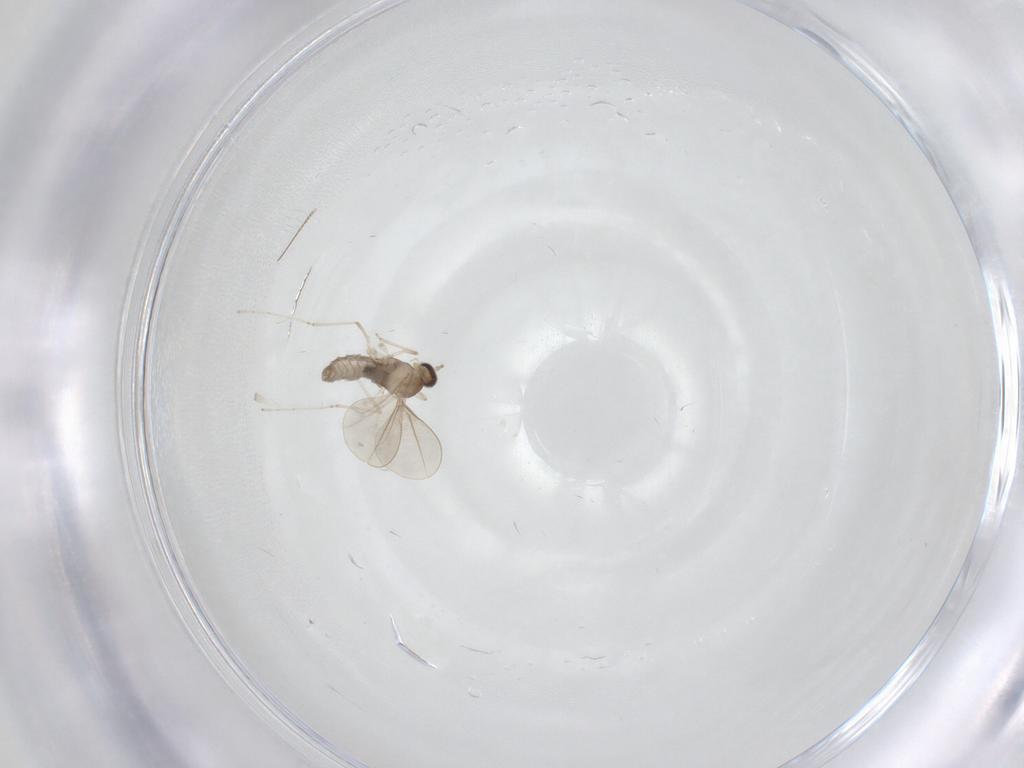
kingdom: Animalia
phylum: Arthropoda
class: Insecta
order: Diptera
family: Cecidomyiidae
